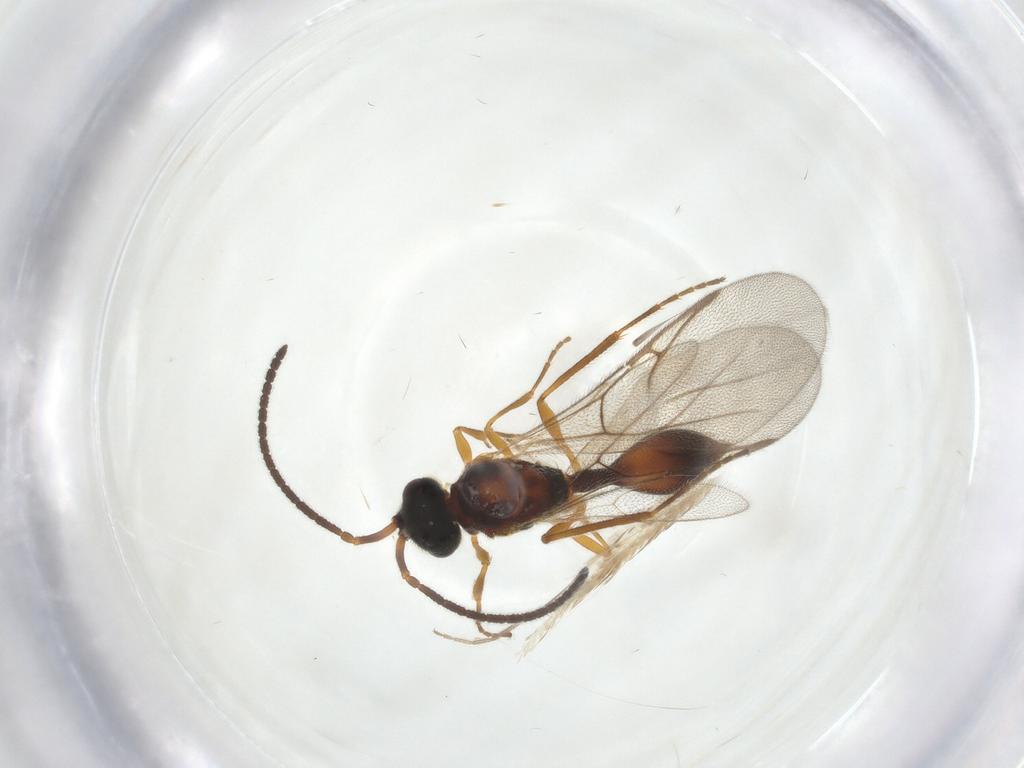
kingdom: Animalia
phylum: Arthropoda
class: Insecta
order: Hymenoptera
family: Diapriidae
